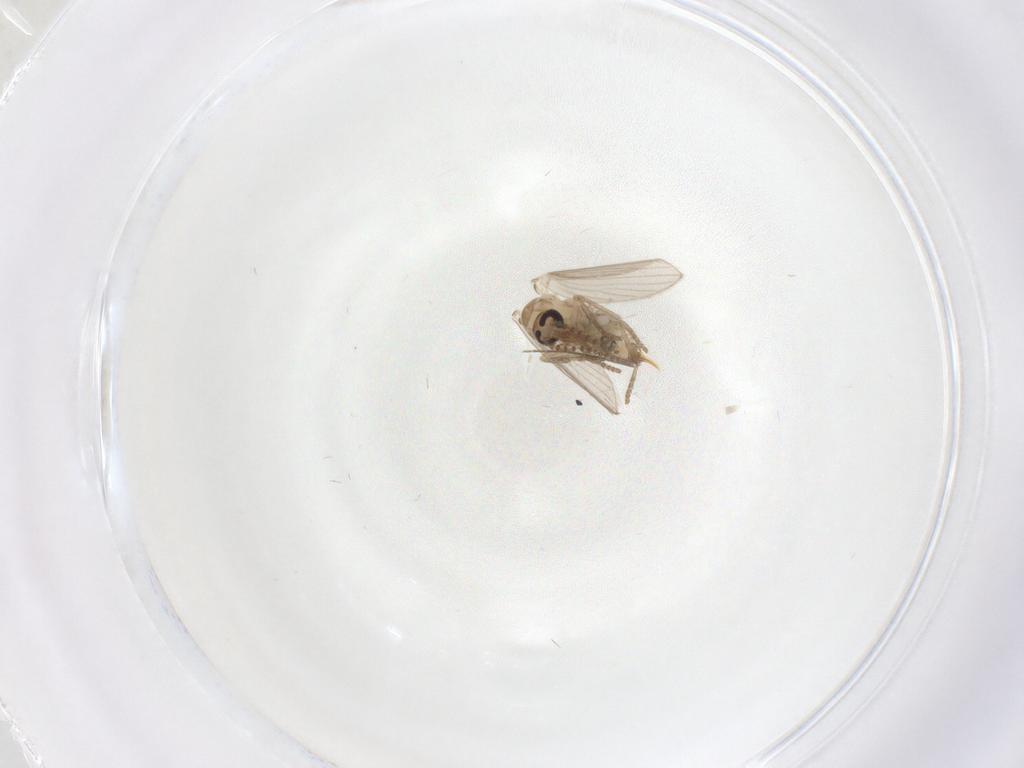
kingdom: Animalia
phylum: Arthropoda
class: Insecta
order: Diptera
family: Psychodidae
